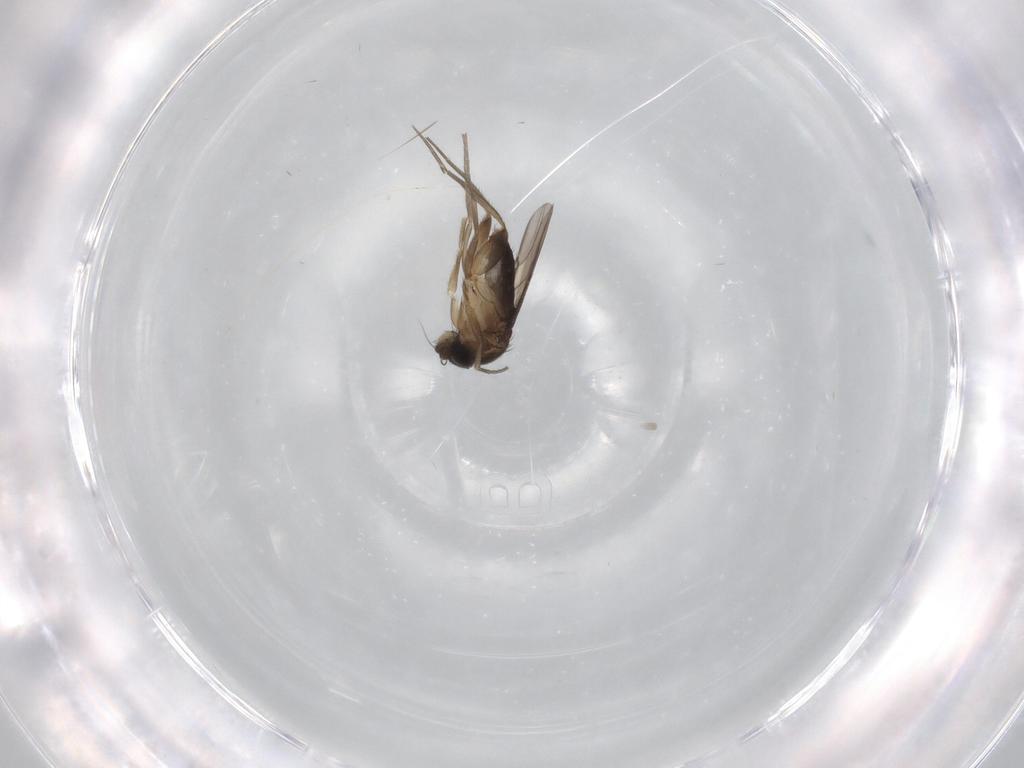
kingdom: Animalia
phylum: Arthropoda
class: Insecta
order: Diptera
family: Phoridae
